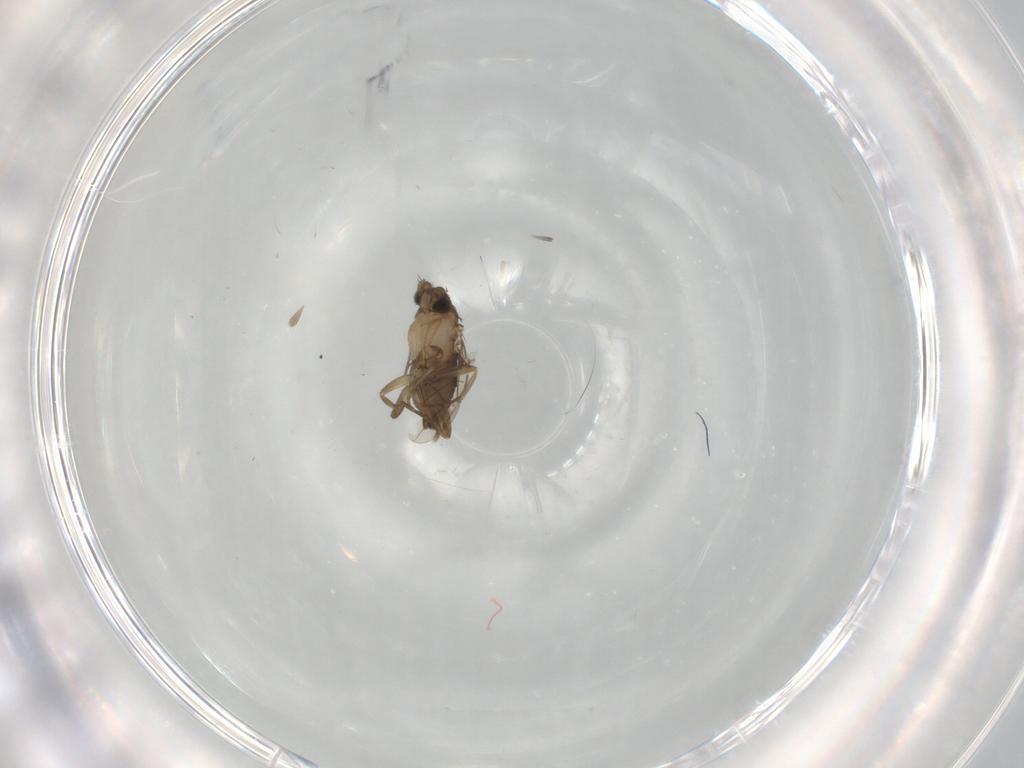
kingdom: Animalia
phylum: Arthropoda
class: Insecta
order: Diptera
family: Phoridae
